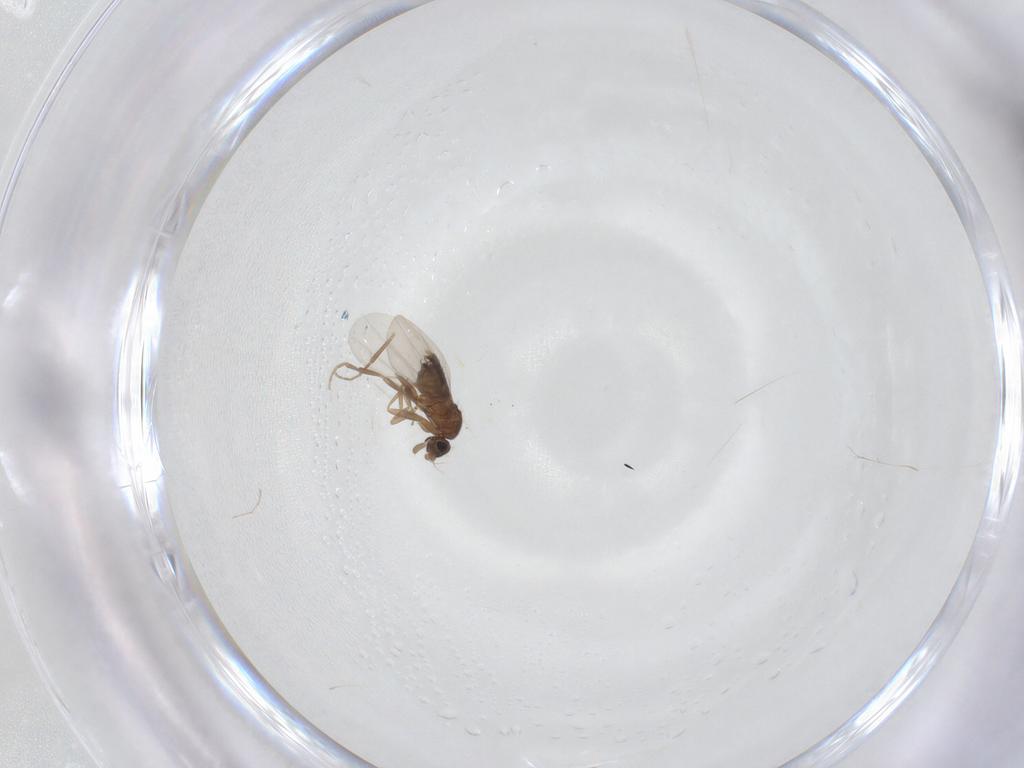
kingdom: Animalia
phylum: Arthropoda
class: Insecta
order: Diptera
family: Phoridae
